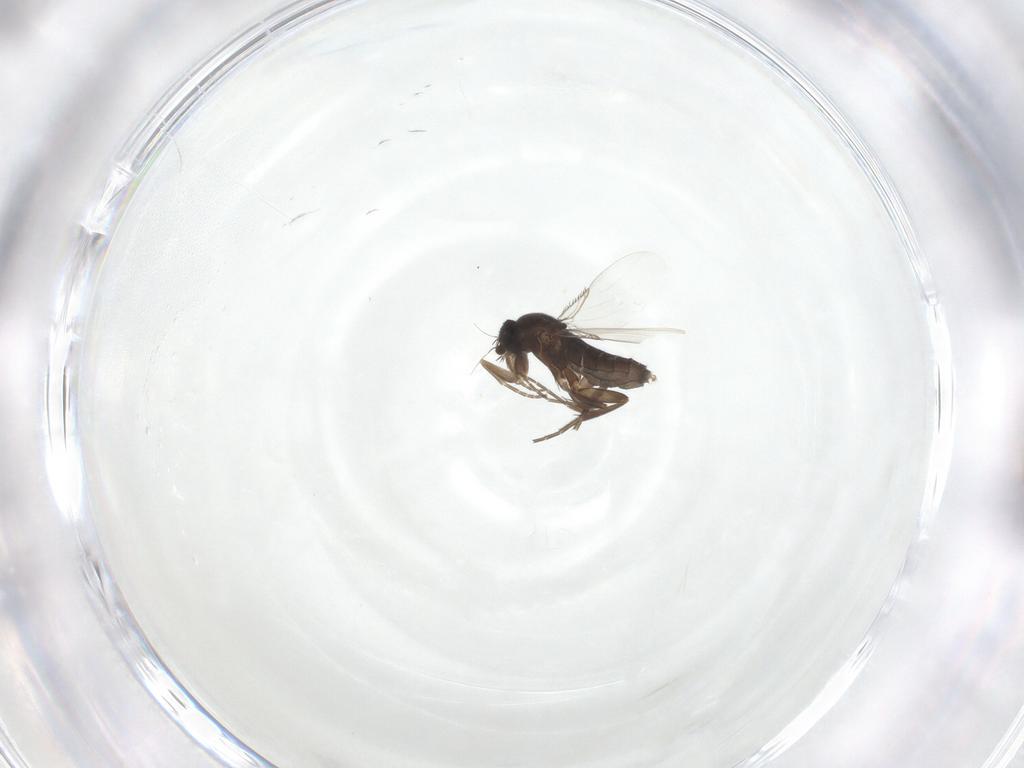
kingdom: Animalia
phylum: Arthropoda
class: Insecta
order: Diptera
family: Phoridae
